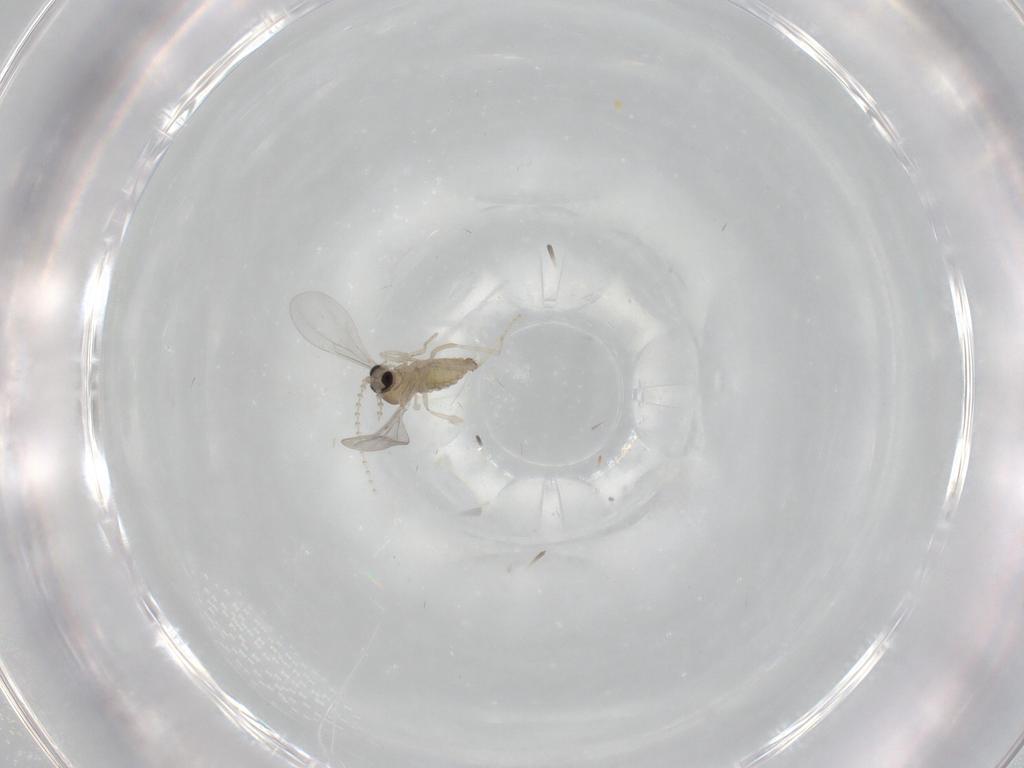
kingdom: Animalia
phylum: Arthropoda
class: Insecta
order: Diptera
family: Cecidomyiidae
